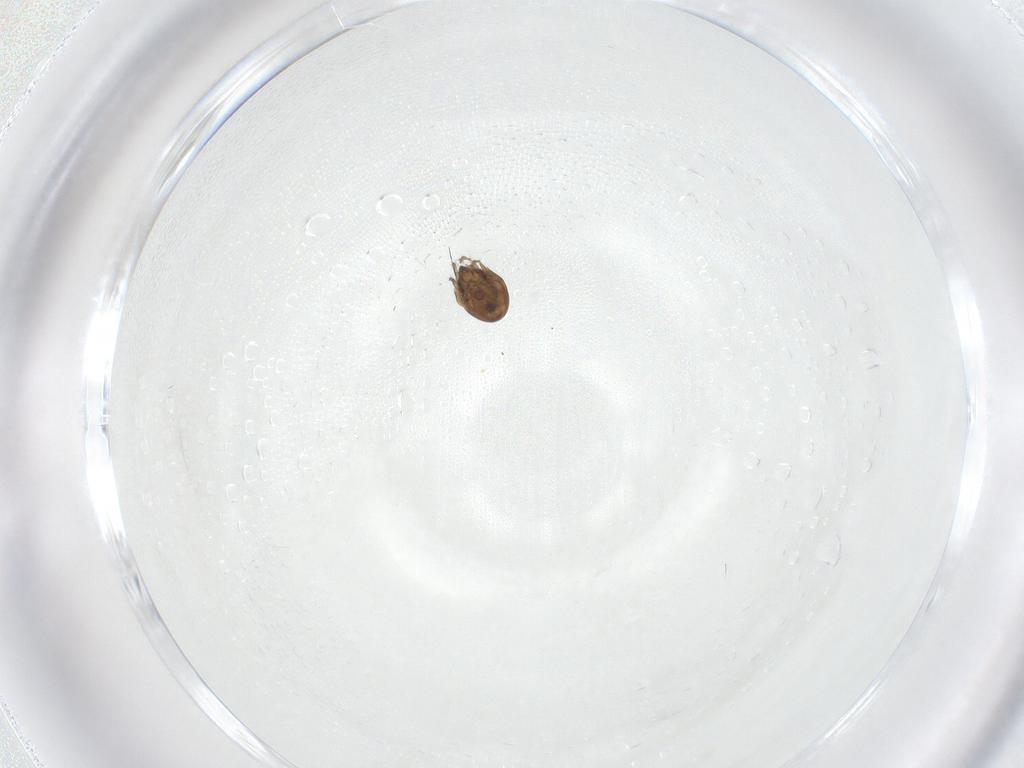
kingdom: Animalia
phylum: Arthropoda
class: Arachnida
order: Sarcoptiformes
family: Ceratozetidae
